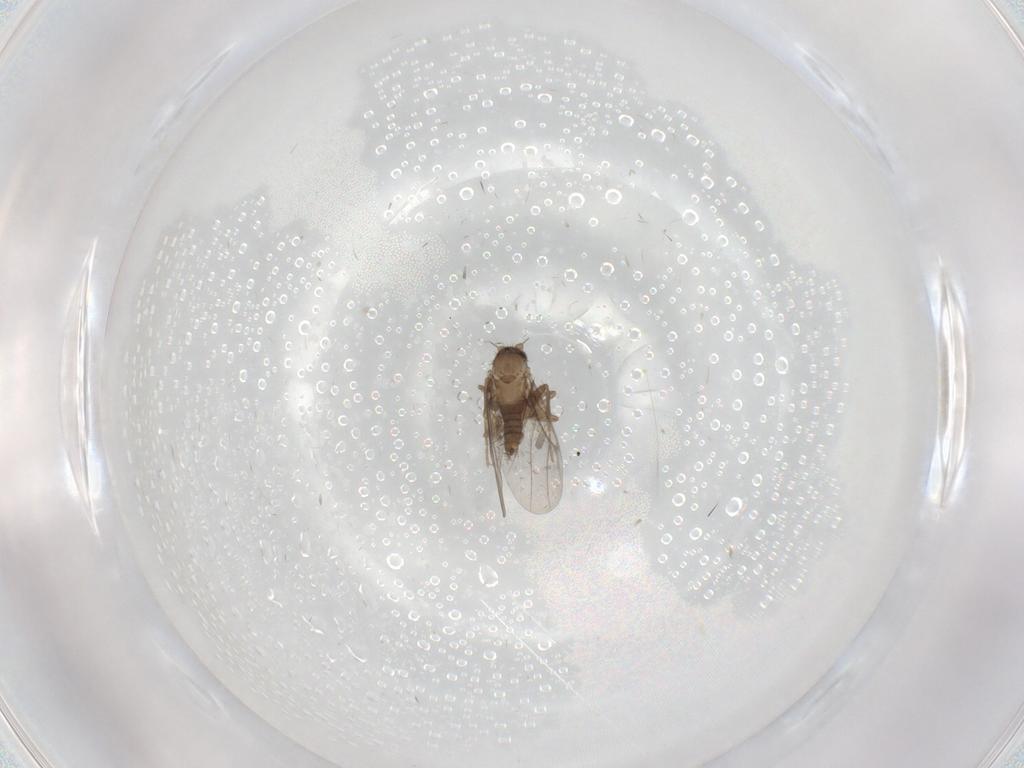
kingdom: Animalia
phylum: Arthropoda
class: Insecta
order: Diptera
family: Phoridae
